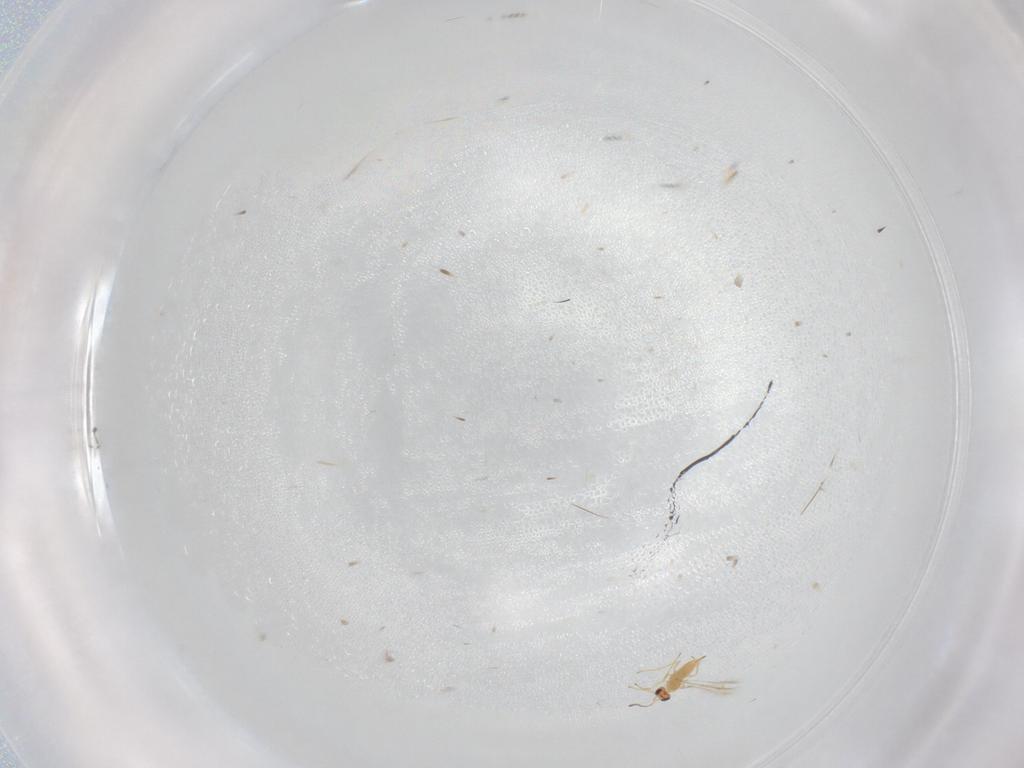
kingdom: Animalia
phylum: Arthropoda
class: Insecta
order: Hymenoptera
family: Mymaridae
